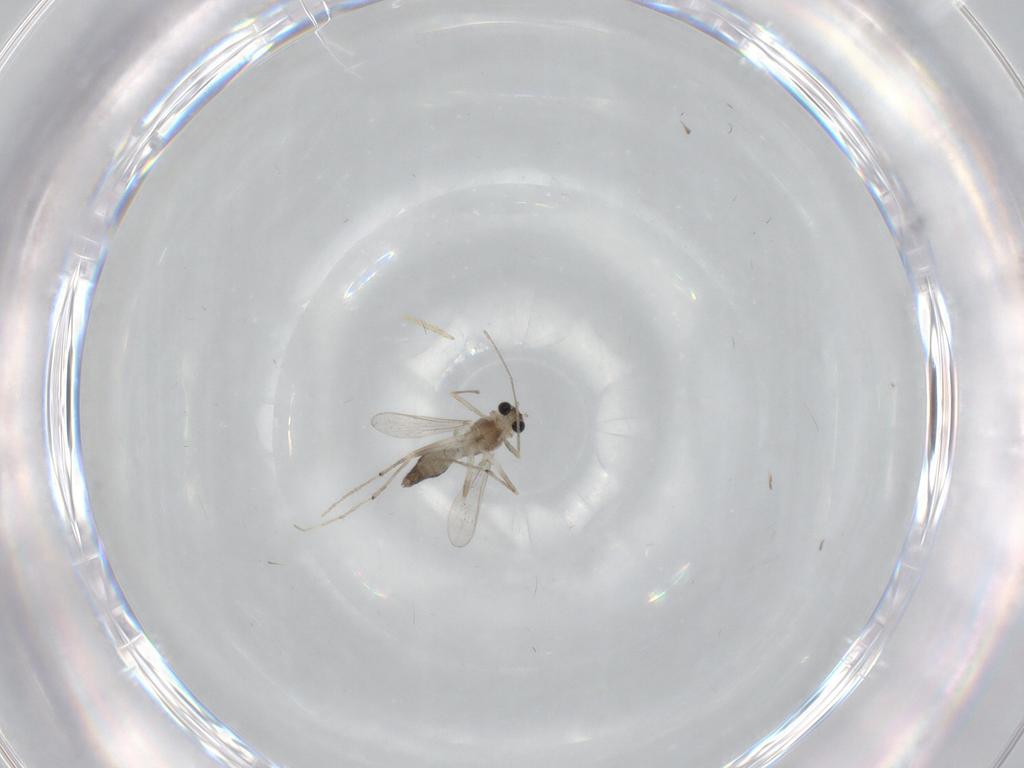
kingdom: Animalia
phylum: Arthropoda
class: Insecta
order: Diptera
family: Chironomidae
